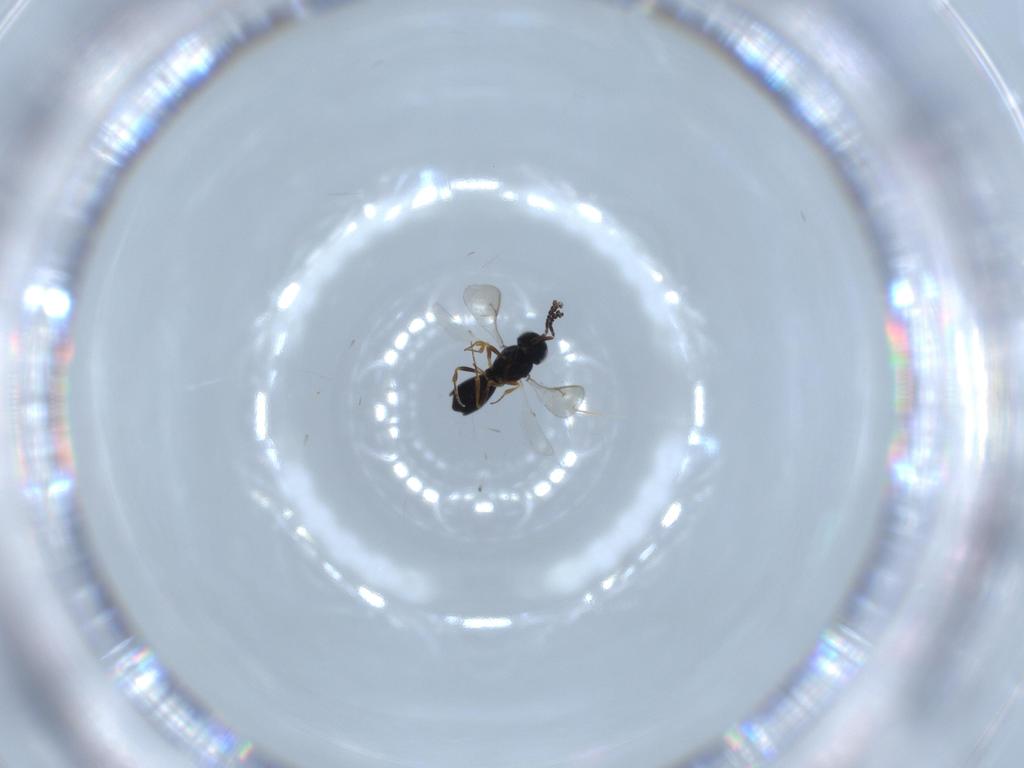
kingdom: Animalia
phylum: Arthropoda
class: Insecta
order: Hymenoptera
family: Scelionidae
